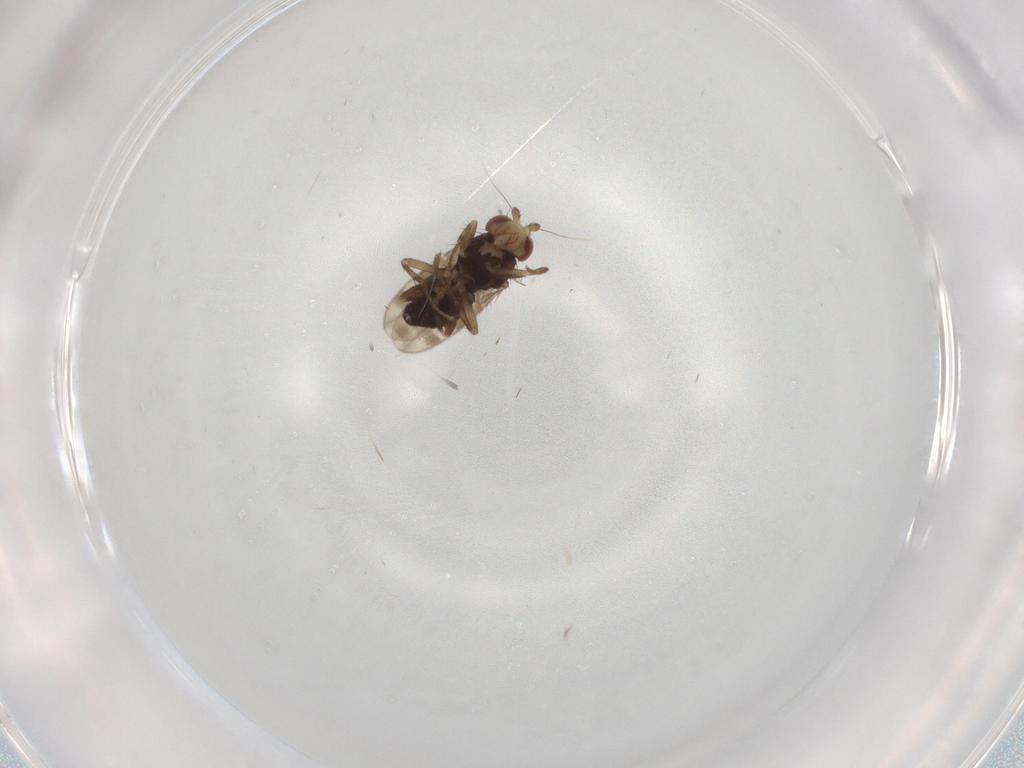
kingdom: Animalia
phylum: Arthropoda
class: Insecta
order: Diptera
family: Sphaeroceridae
